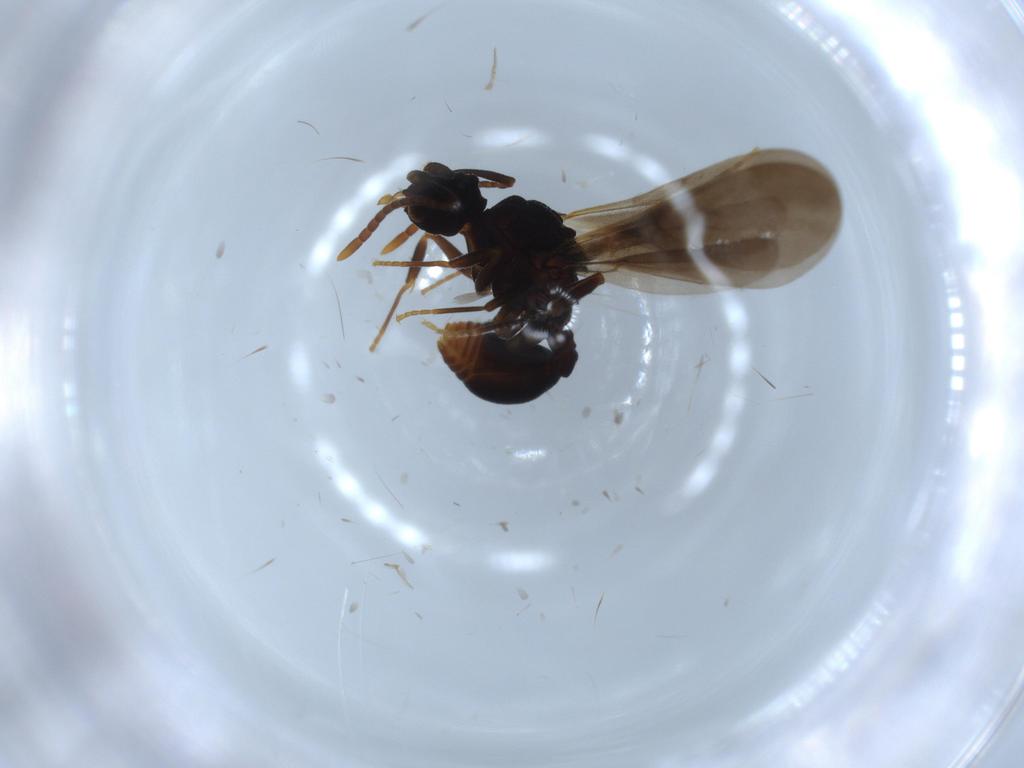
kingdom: Animalia
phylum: Arthropoda
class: Insecta
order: Hymenoptera
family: Formicidae
